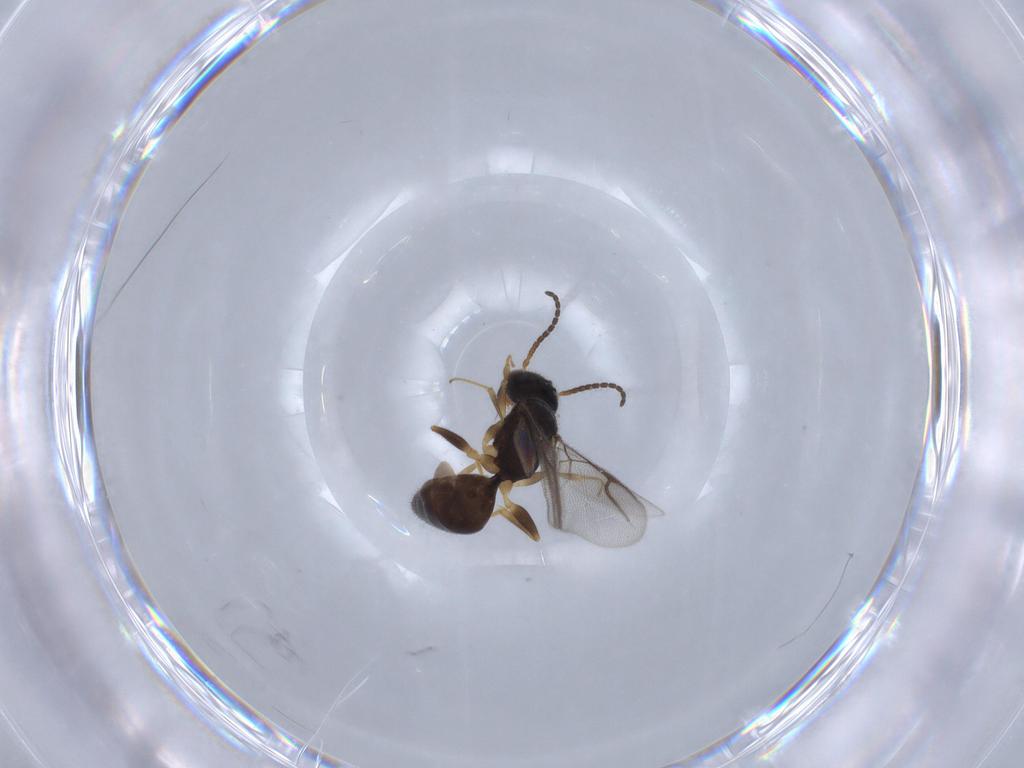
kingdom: Animalia
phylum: Arthropoda
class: Insecta
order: Hymenoptera
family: Bethylidae
